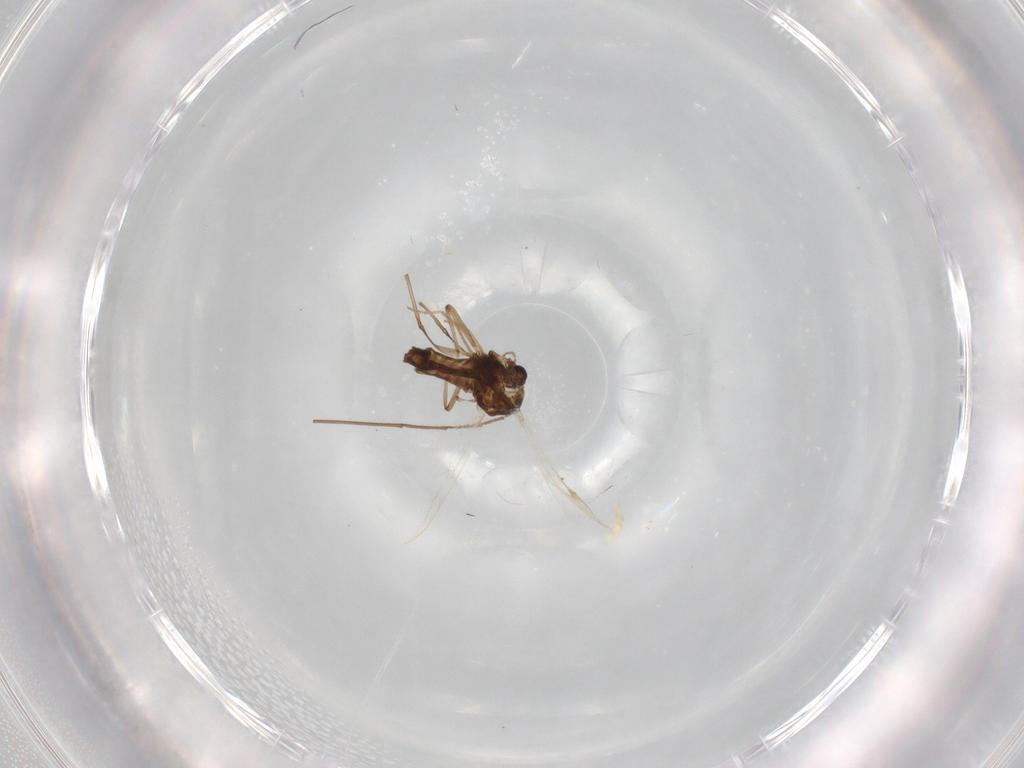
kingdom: Animalia
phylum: Arthropoda
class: Insecta
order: Diptera
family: Chironomidae
